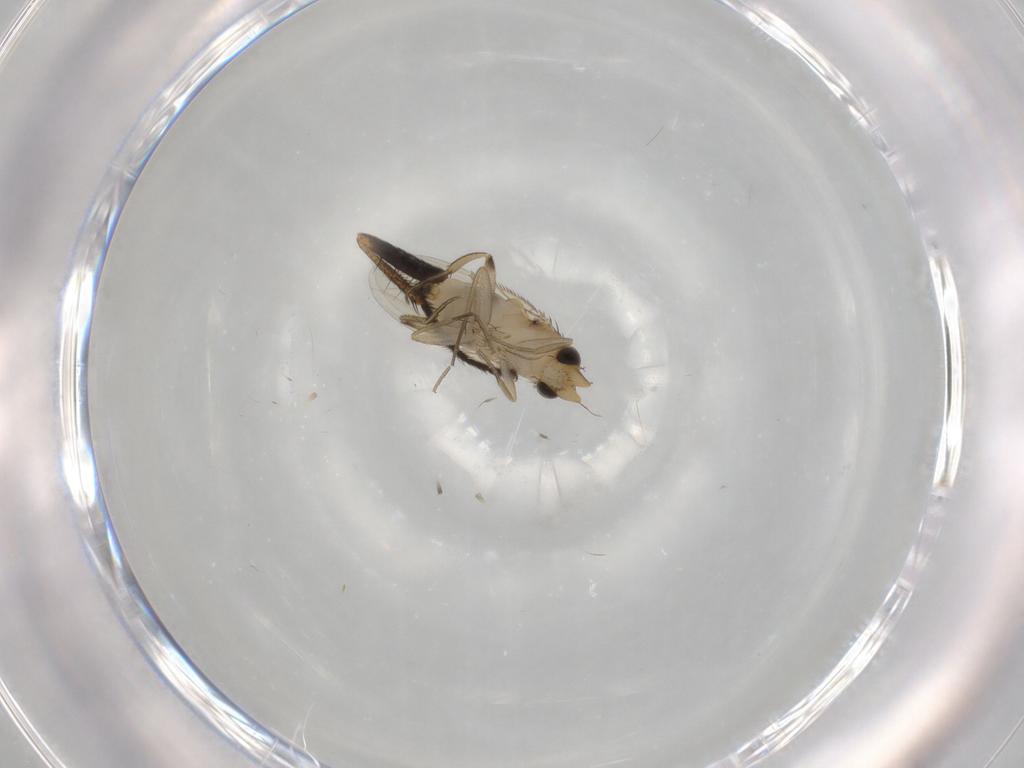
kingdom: Animalia
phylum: Arthropoda
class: Insecta
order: Diptera
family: Phoridae
